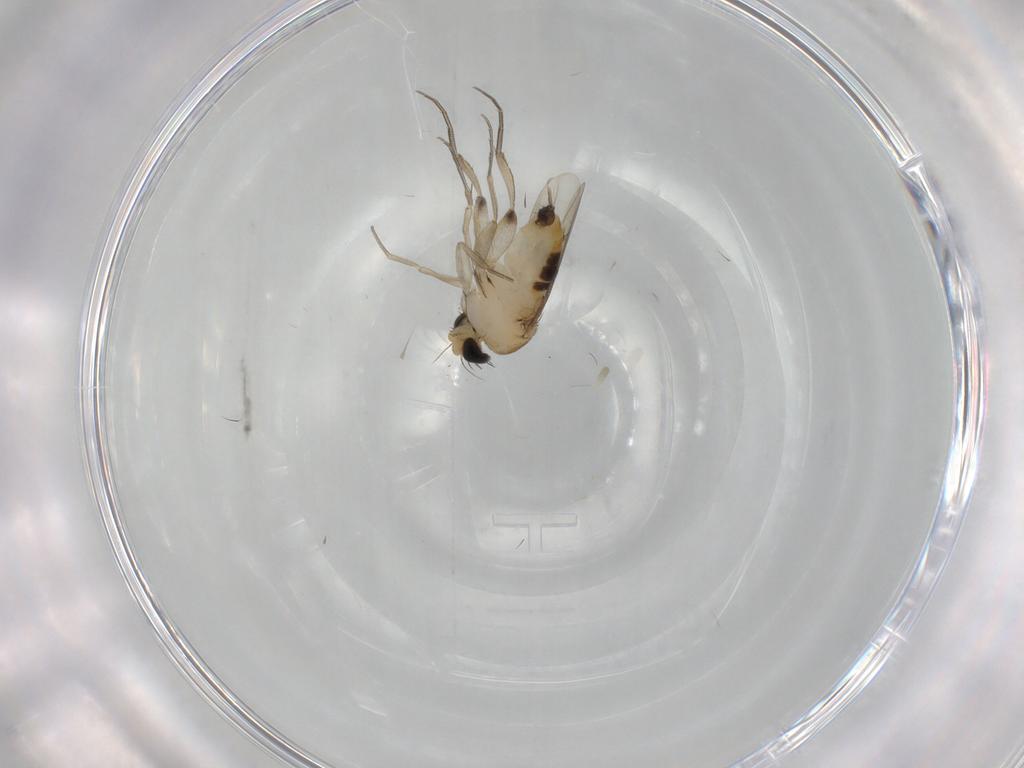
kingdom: Animalia
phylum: Arthropoda
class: Insecta
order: Diptera
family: Phoridae
